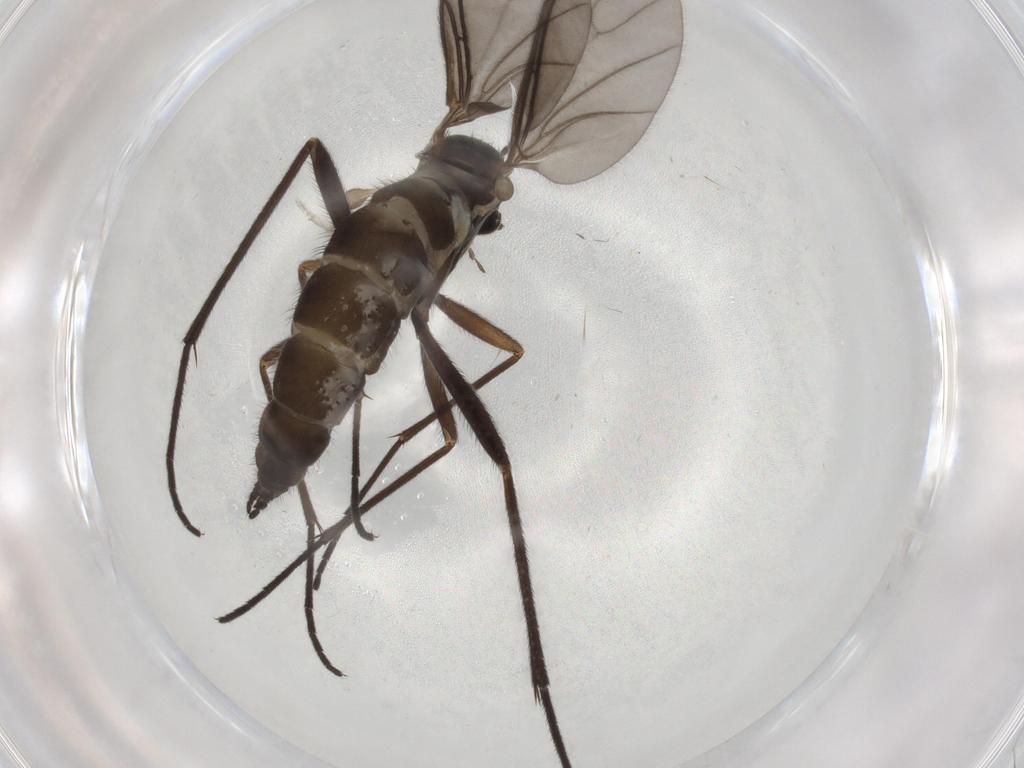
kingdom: Animalia
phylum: Arthropoda
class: Insecta
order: Diptera
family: Sciaridae
